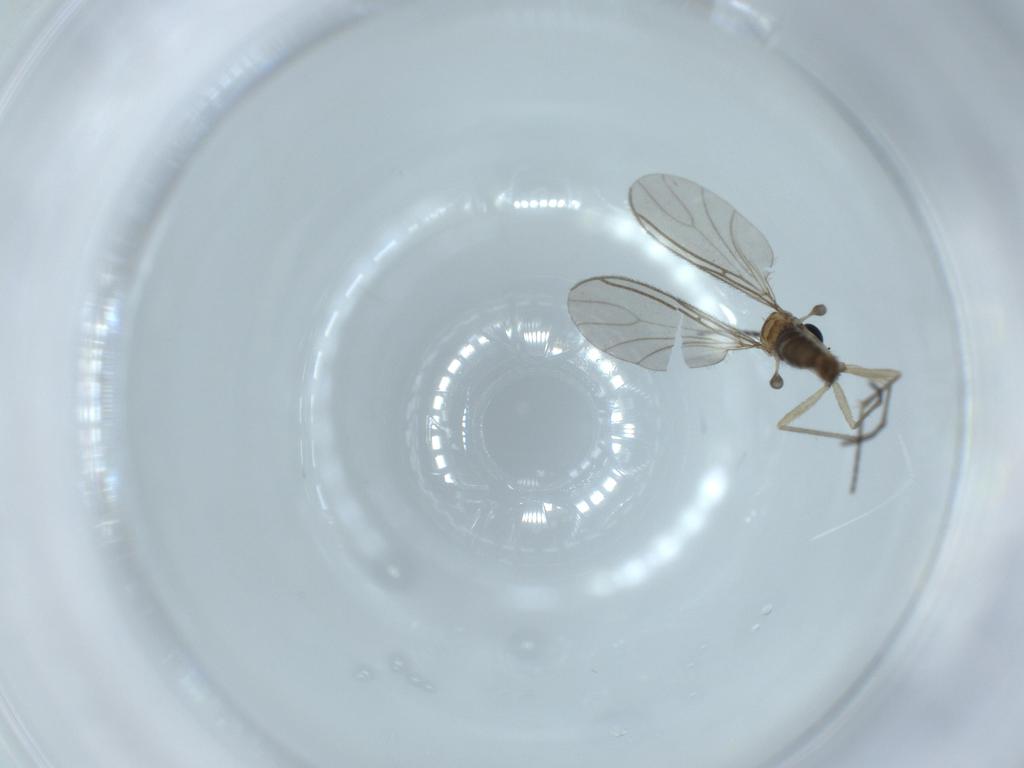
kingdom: Animalia
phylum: Arthropoda
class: Insecta
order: Diptera
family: Sciaridae
